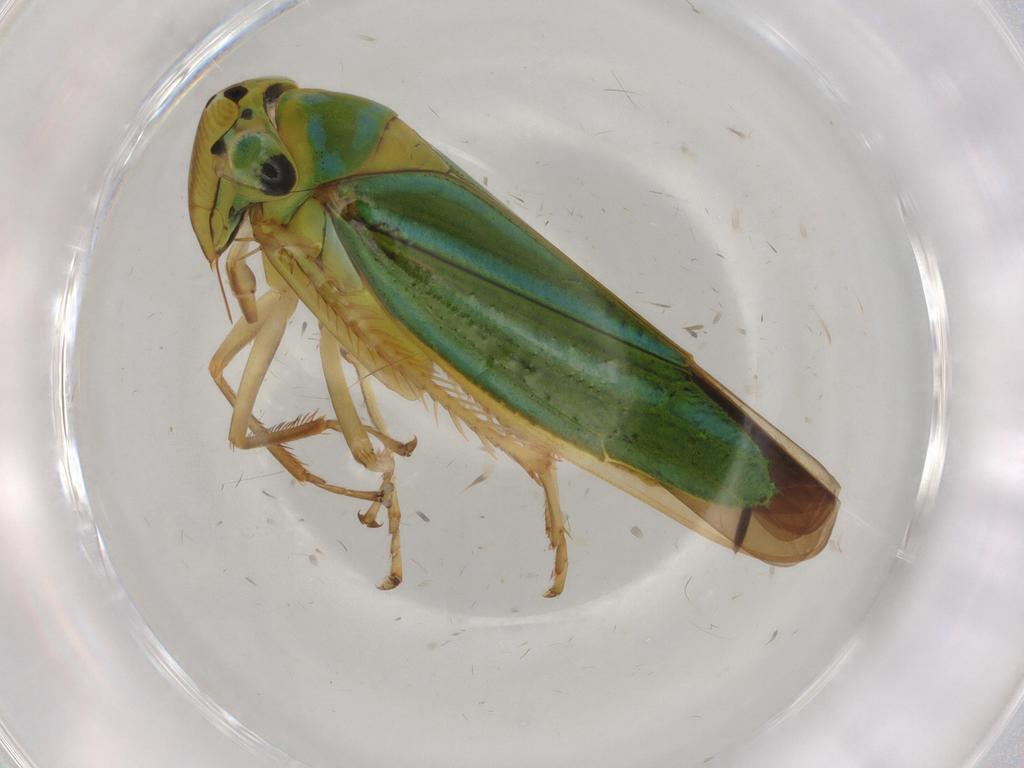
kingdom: Animalia
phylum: Arthropoda
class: Insecta
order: Hemiptera
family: Cicadellidae
